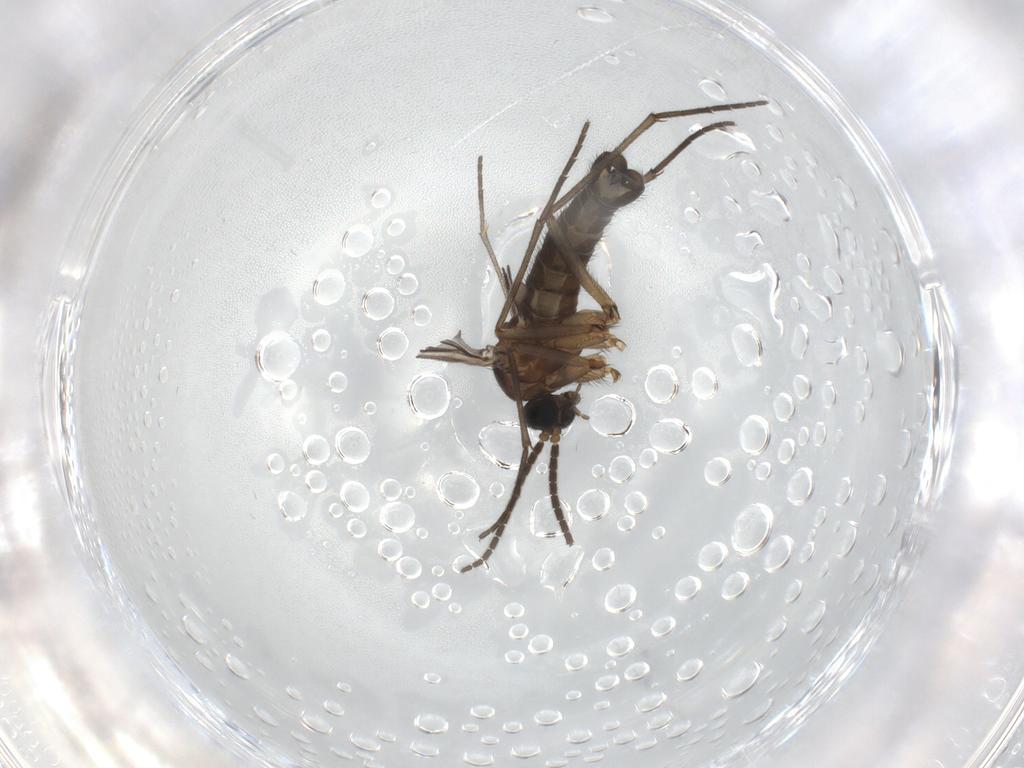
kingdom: Animalia
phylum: Arthropoda
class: Insecta
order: Diptera
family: Sciaridae
